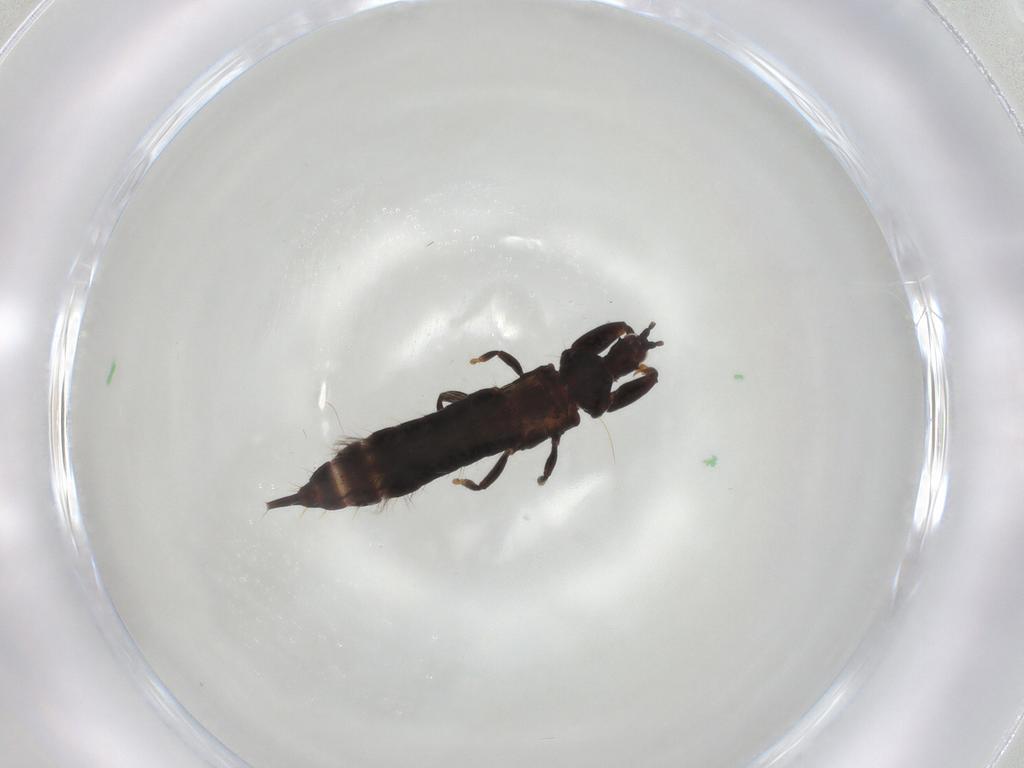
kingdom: Animalia
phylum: Arthropoda
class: Insecta
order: Thysanoptera
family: Phlaeothripidae
